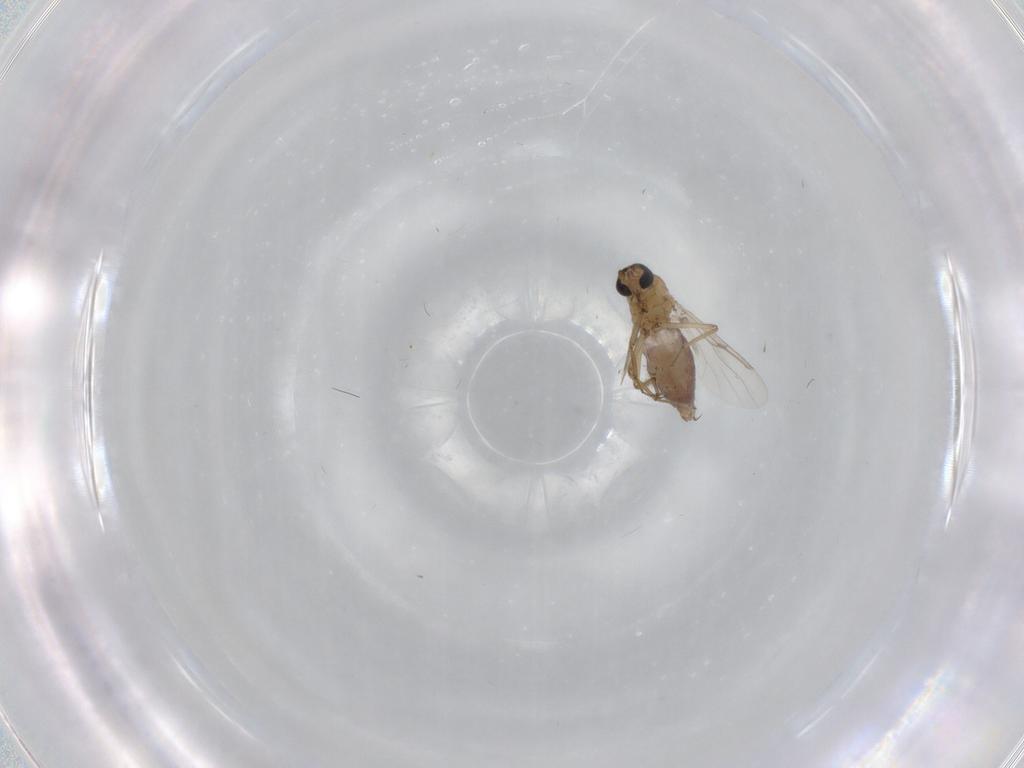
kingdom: Animalia
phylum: Arthropoda
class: Insecta
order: Diptera
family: Ceratopogonidae
